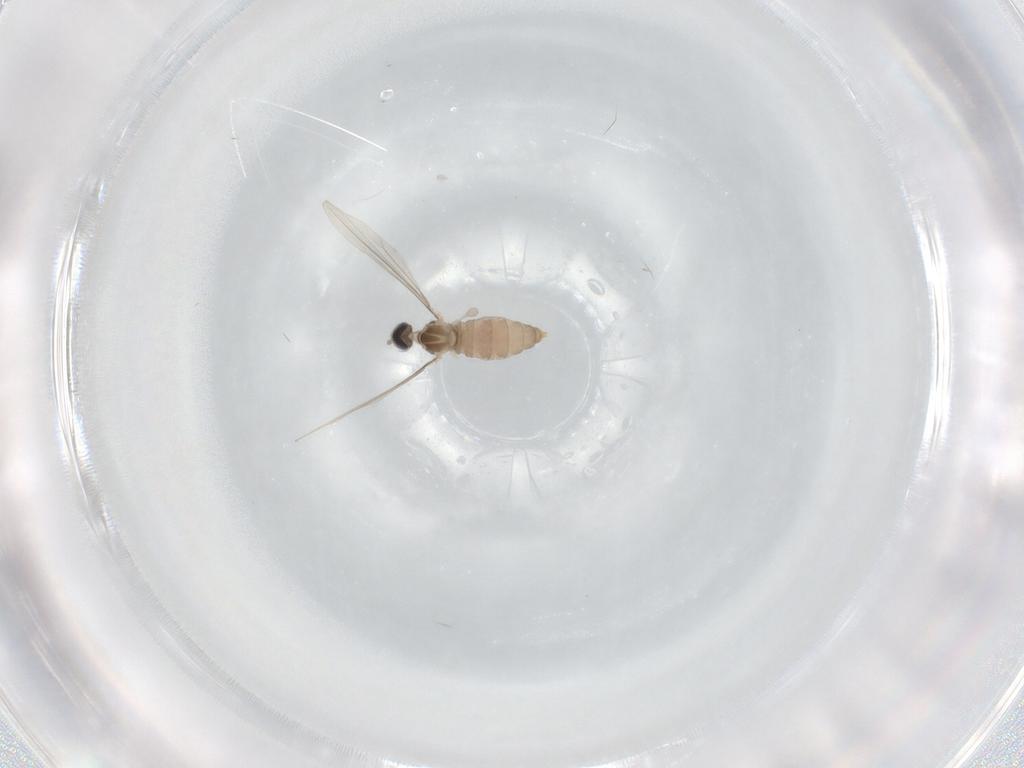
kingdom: Animalia
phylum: Arthropoda
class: Insecta
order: Diptera
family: Cecidomyiidae
